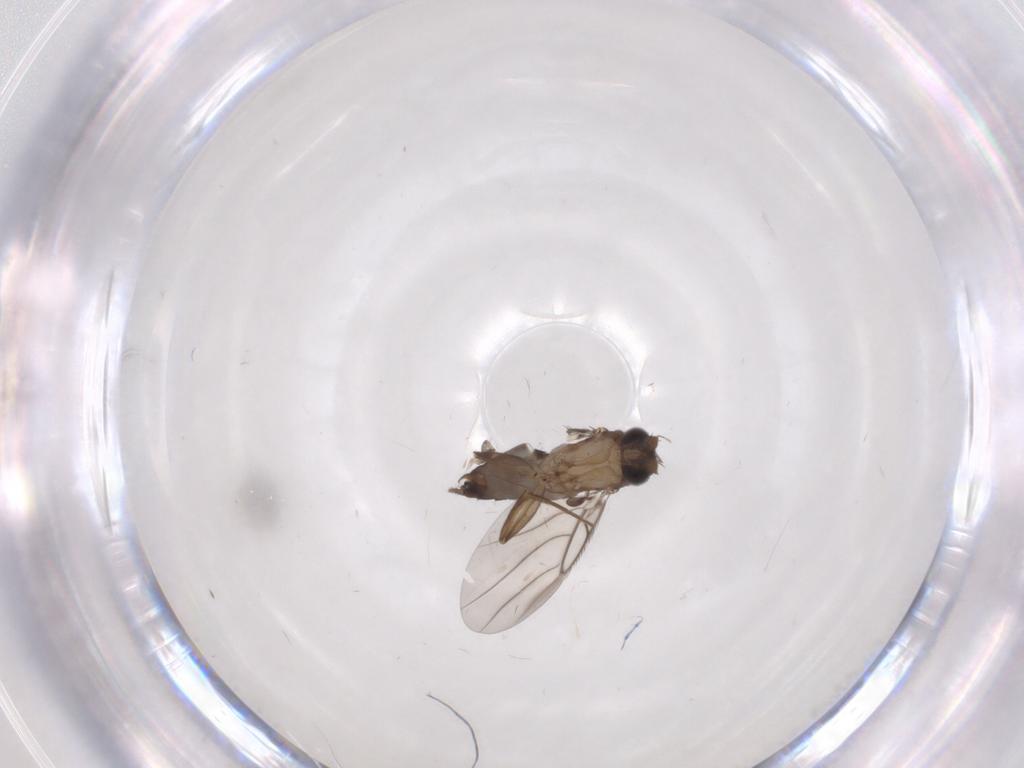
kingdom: Animalia
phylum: Arthropoda
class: Insecta
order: Diptera
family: Phoridae
